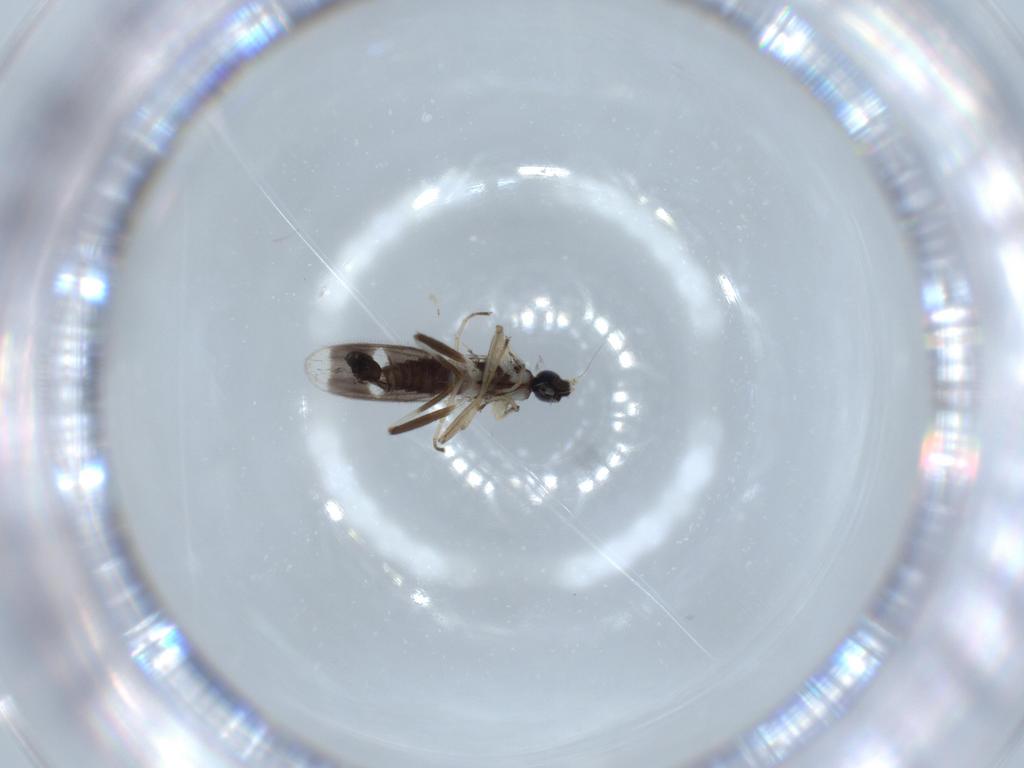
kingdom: Animalia
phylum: Arthropoda
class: Insecta
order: Diptera
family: Hybotidae
